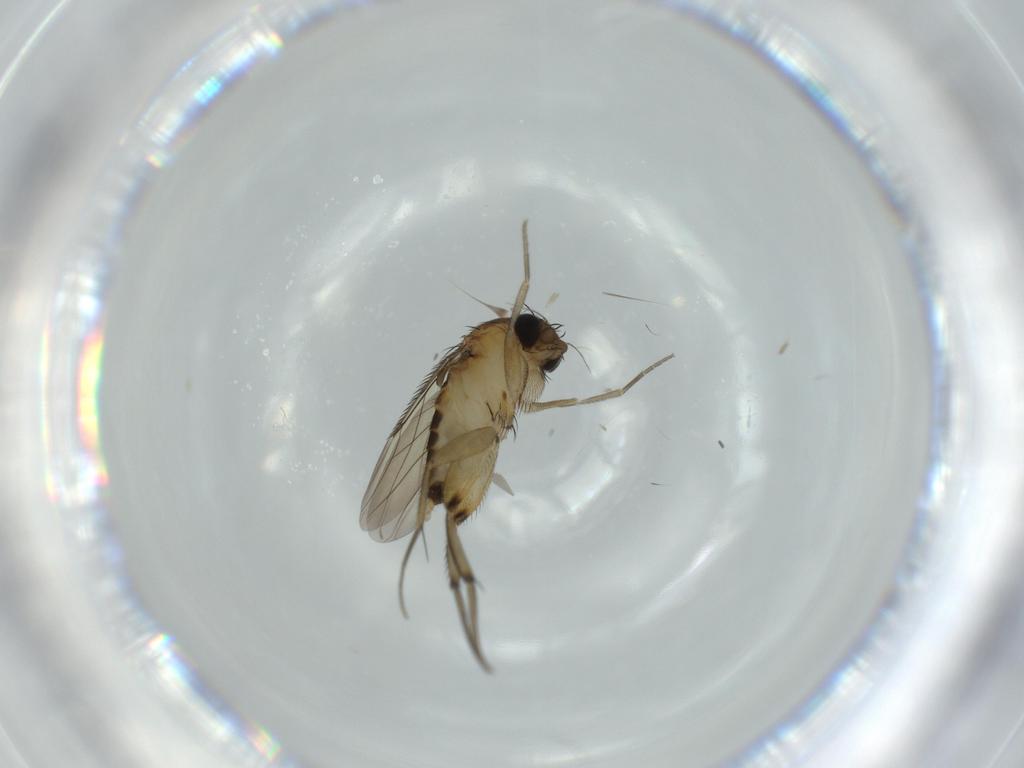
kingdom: Animalia
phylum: Arthropoda
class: Insecta
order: Diptera
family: Phoridae
